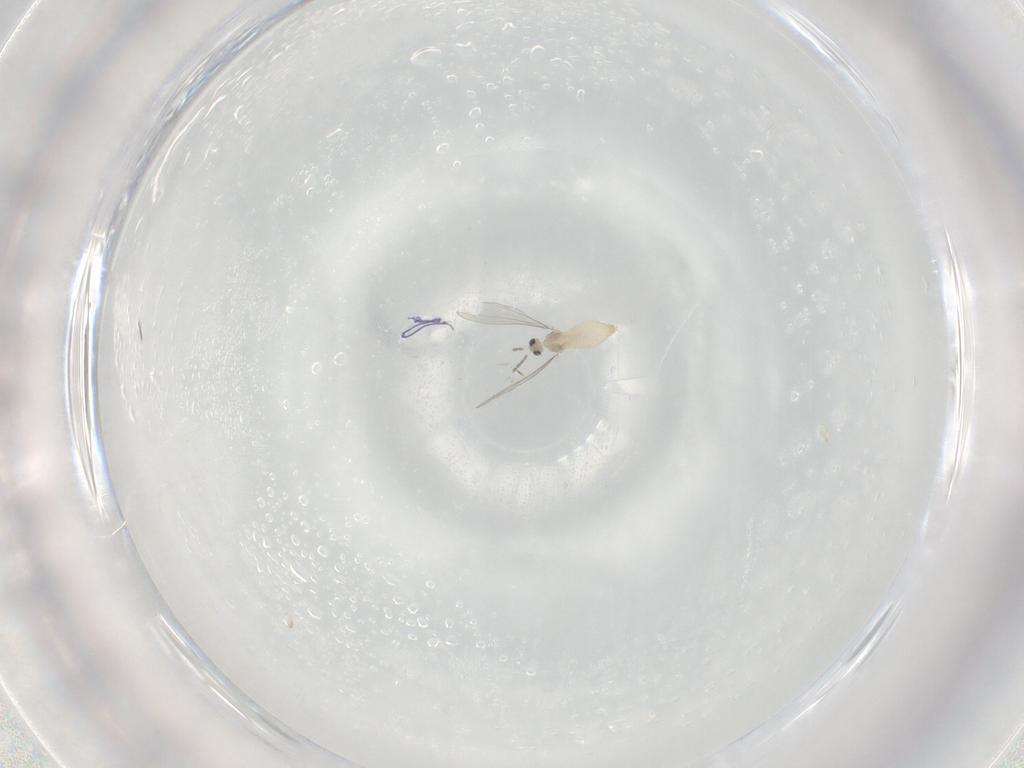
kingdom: Animalia
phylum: Arthropoda
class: Insecta
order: Diptera
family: Cecidomyiidae
